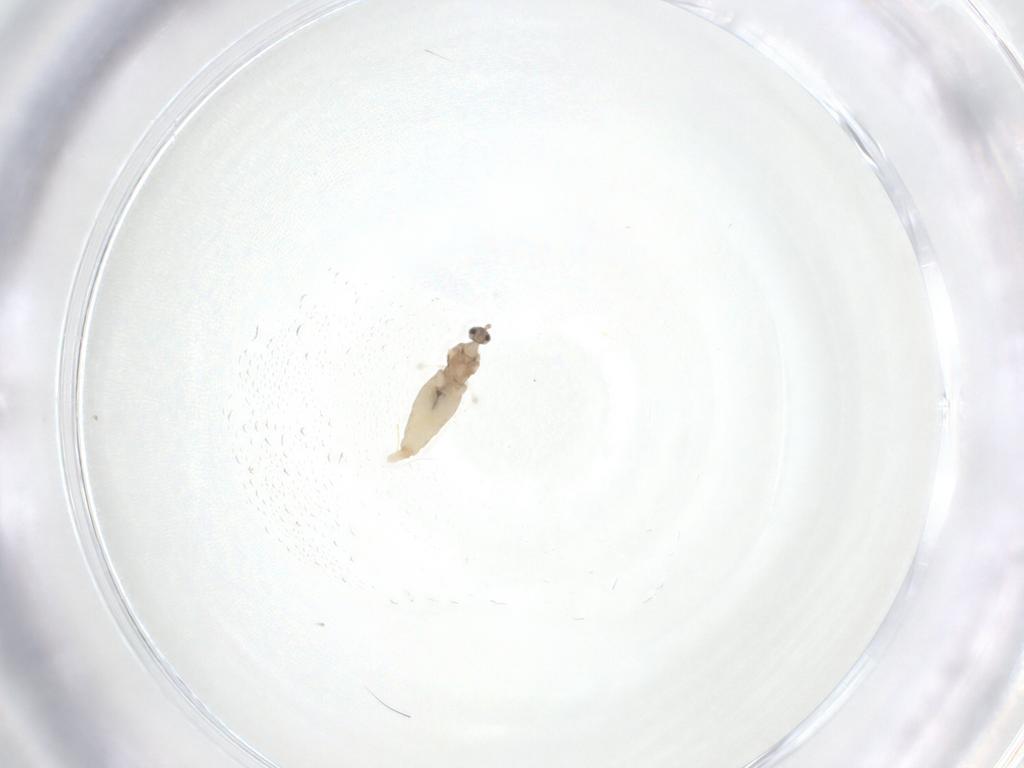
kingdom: Animalia
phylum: Arthropoda
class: Insecta
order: Diptera
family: Cecidomyiidae
